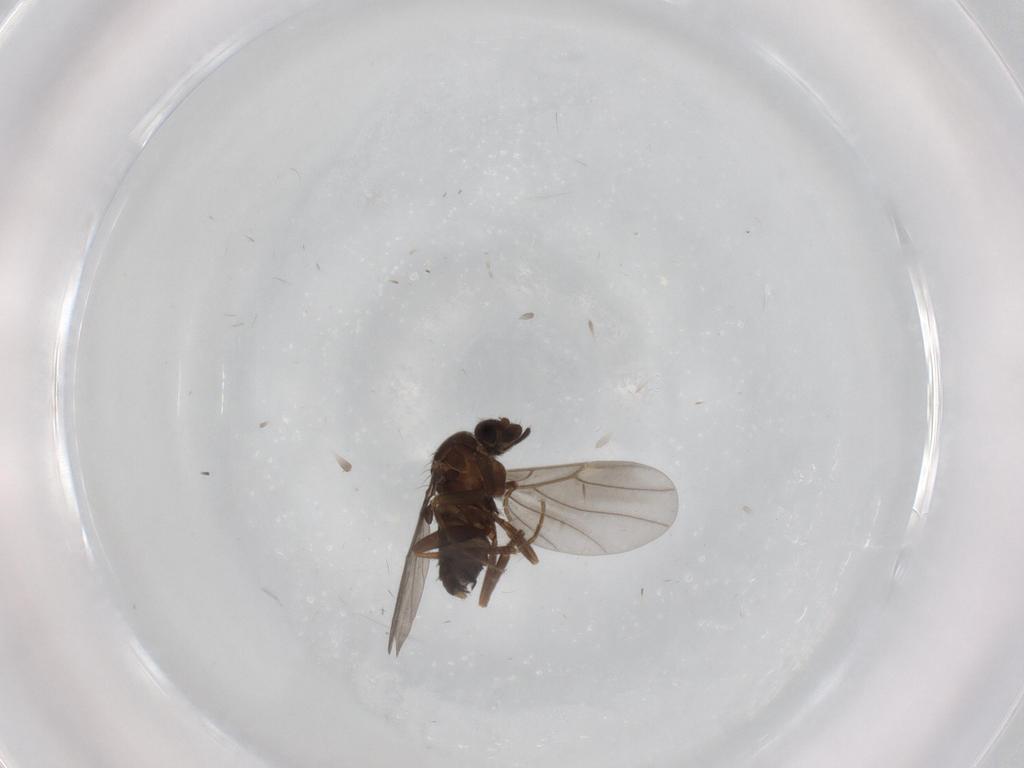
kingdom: Animalia
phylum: Arthropoda
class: Insecta
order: Diptera
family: Phoridae
